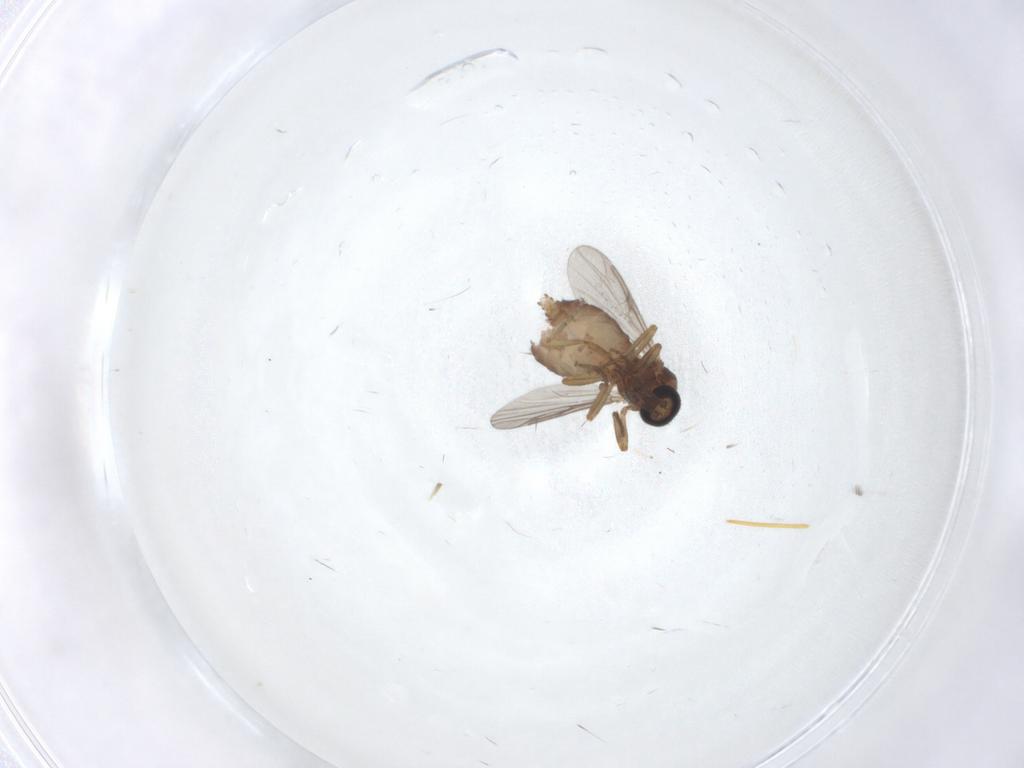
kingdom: Animalia
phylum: Arthropoda
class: Insecta
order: Diptera
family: Ceratopogonidae
